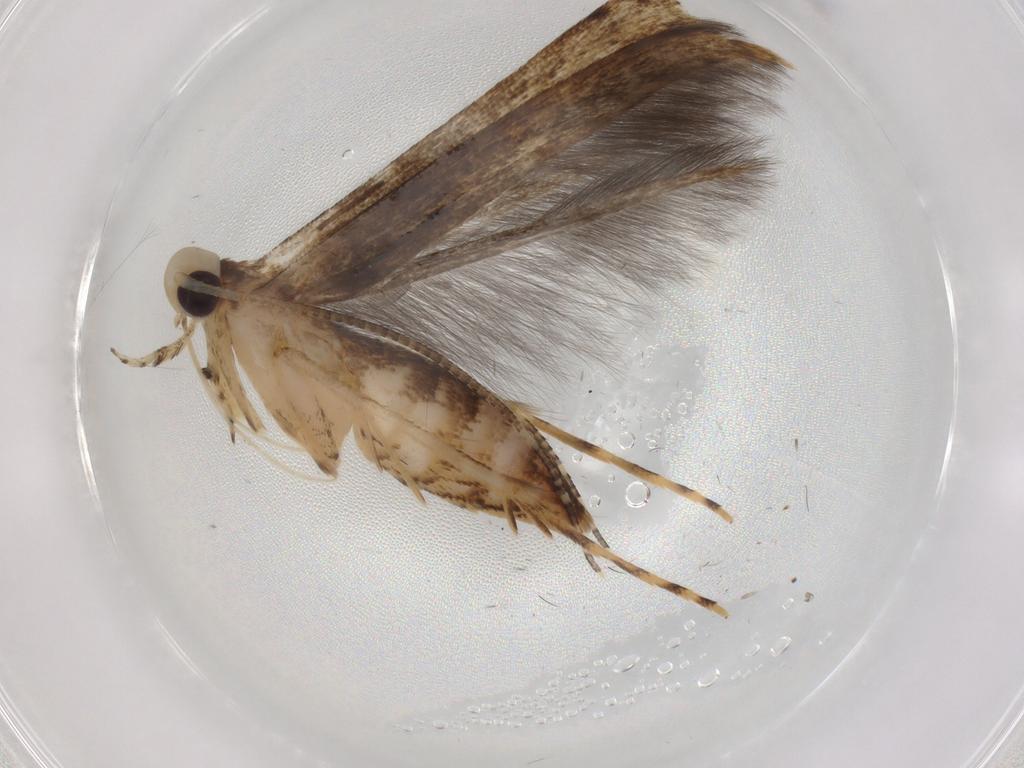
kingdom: Animalia
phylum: Arthropoda
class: Insecta
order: Lepidoptera
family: Batrachedridae
